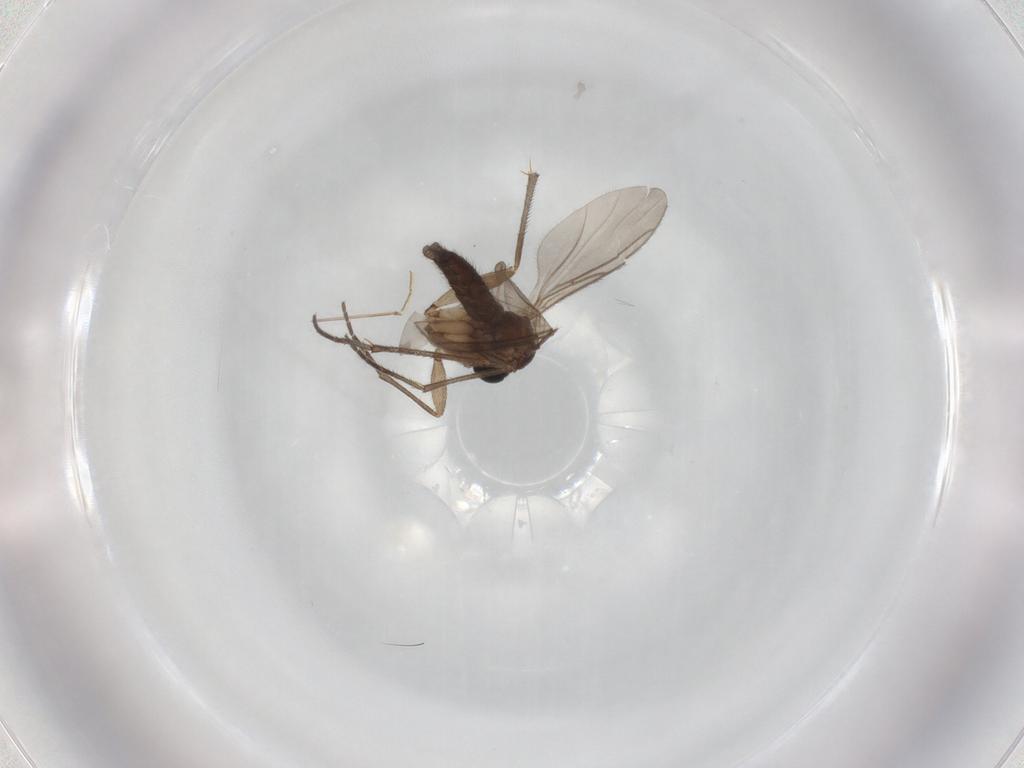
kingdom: Animalia
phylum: Arthropoda
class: Insecta
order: Diptera
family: Sciaridae
